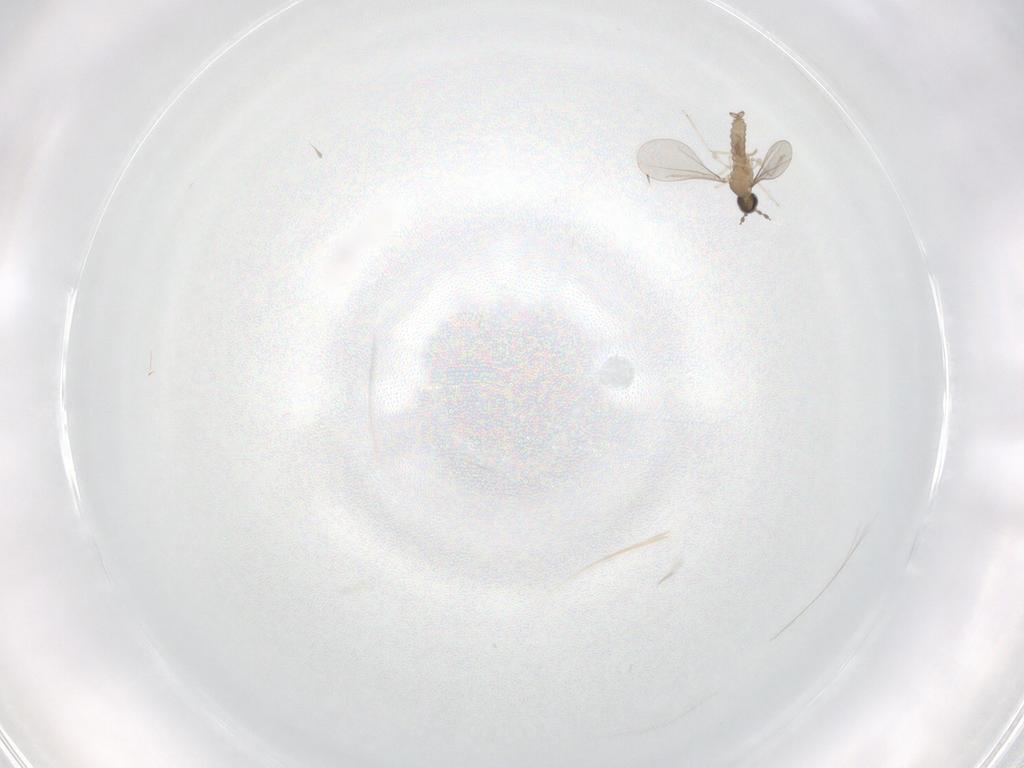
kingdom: Animalia
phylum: Arthropoda
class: Insecta
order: Diptera
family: Cecidomyiidae
